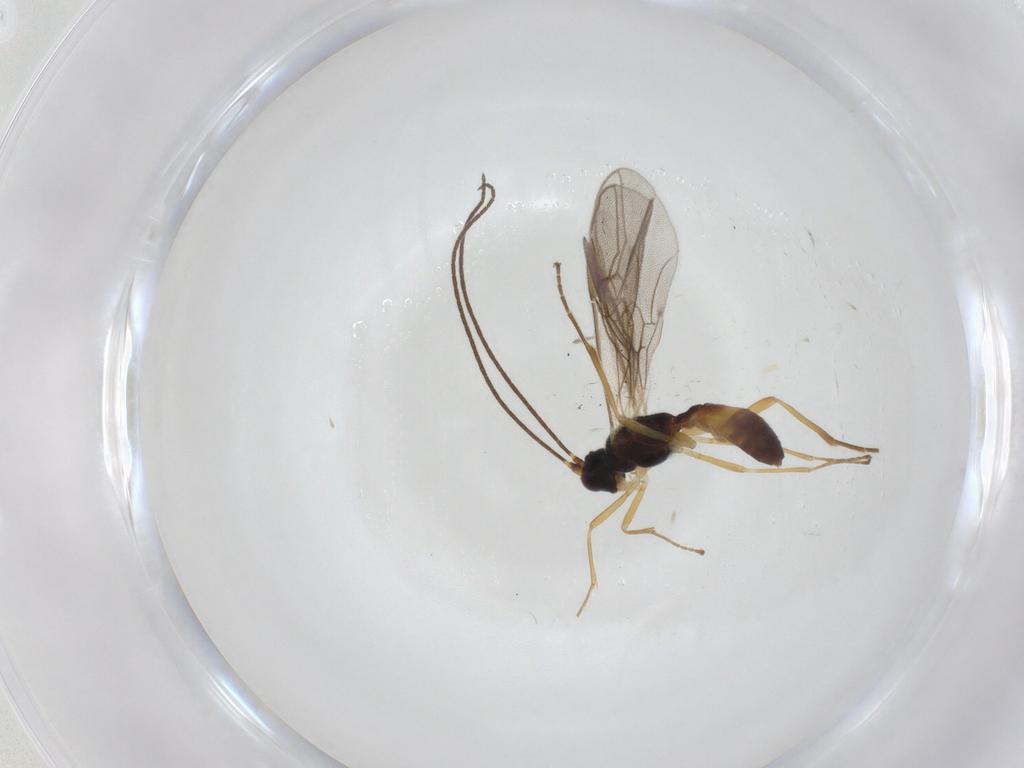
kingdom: Animalia
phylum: Arthropoda
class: Insecta
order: Hymenoptera
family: Braconidae
